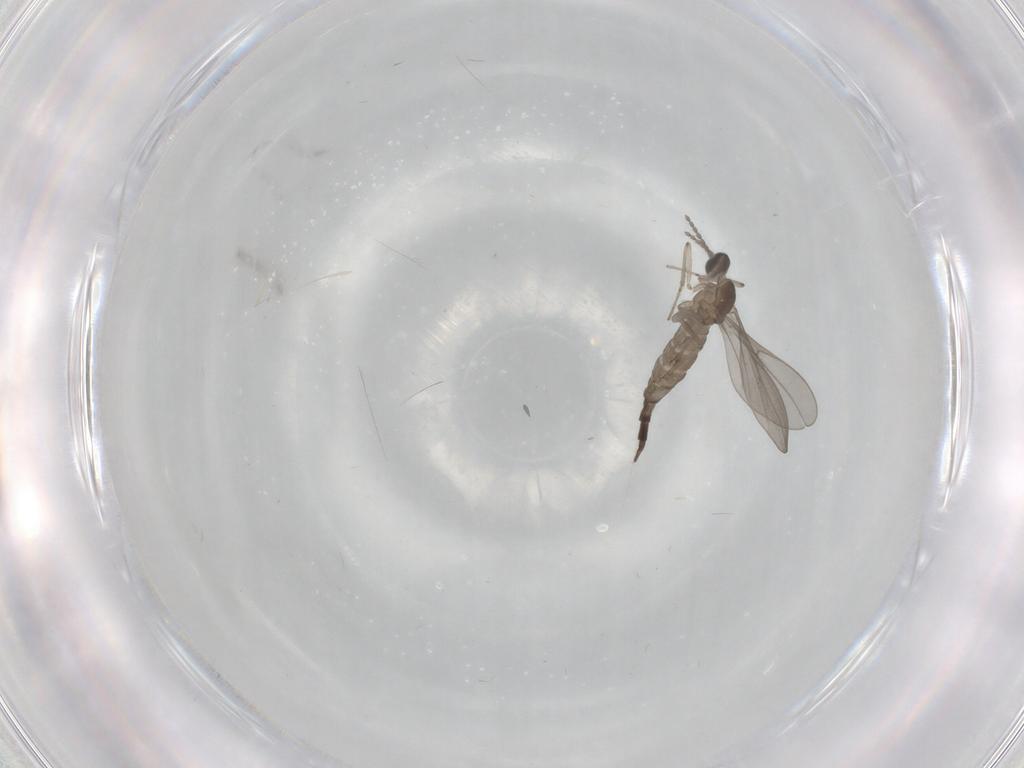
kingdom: Animalia
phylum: Arthropoda
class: Insecta
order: Diptera
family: Cecidomyiidae
